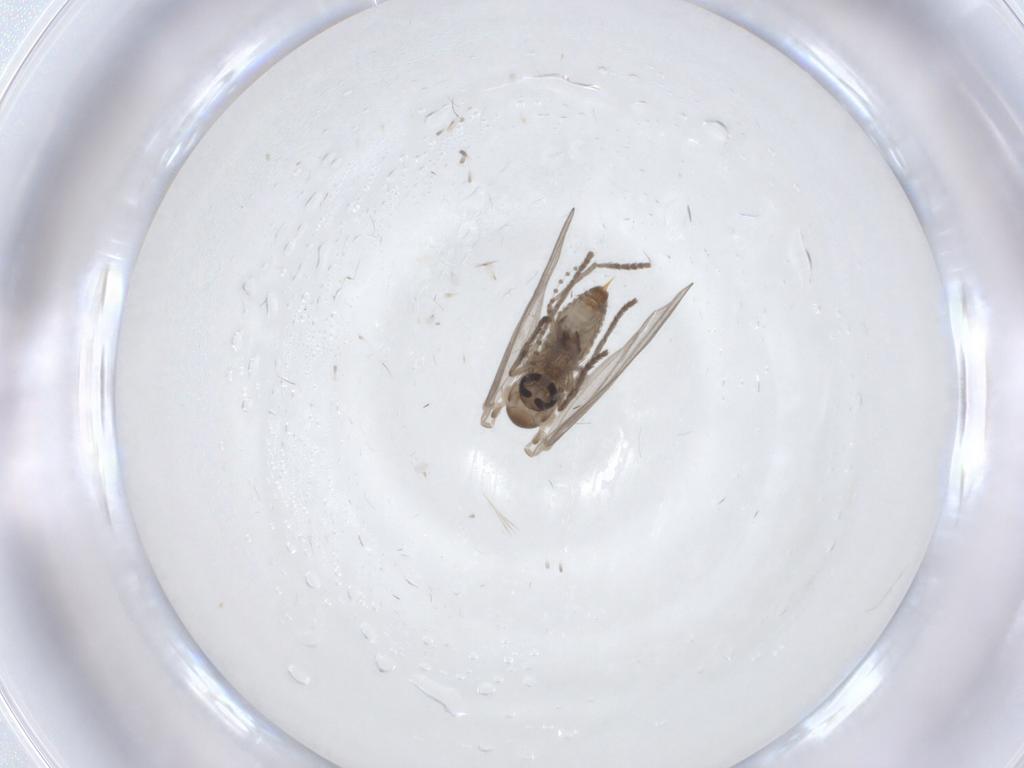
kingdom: Animalia
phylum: Arthropoda
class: Insecta
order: Diptera
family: Psychodidae
